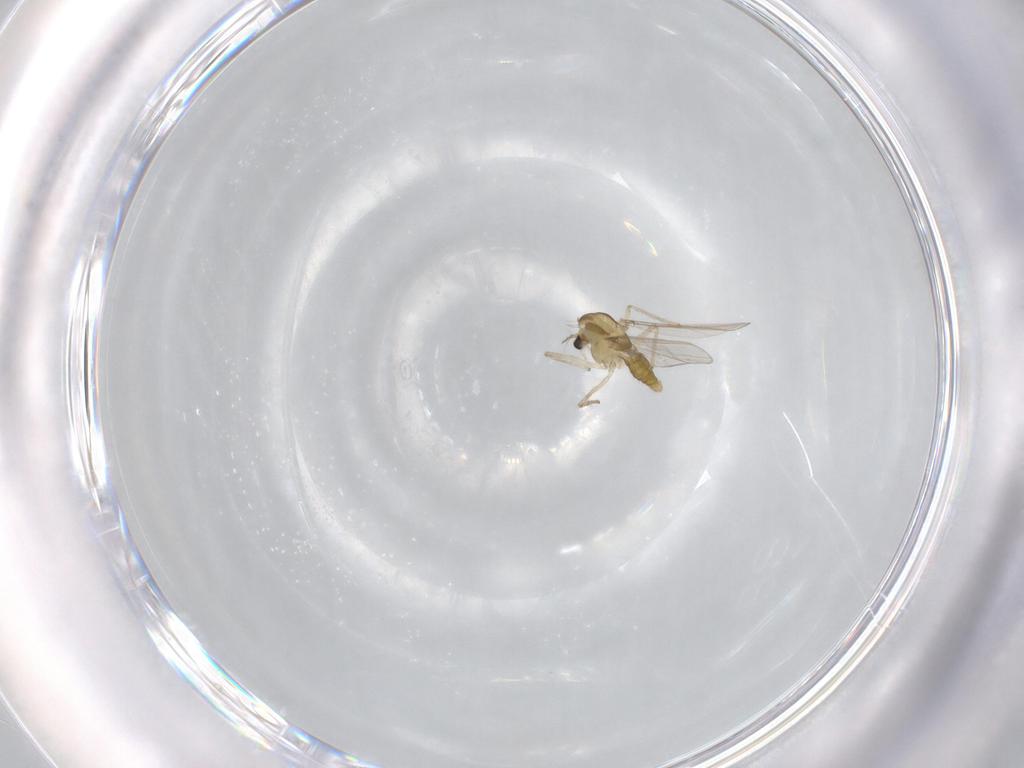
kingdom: Animalia
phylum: Arthropoda
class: Insecta
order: Diptera
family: Chironomidae
